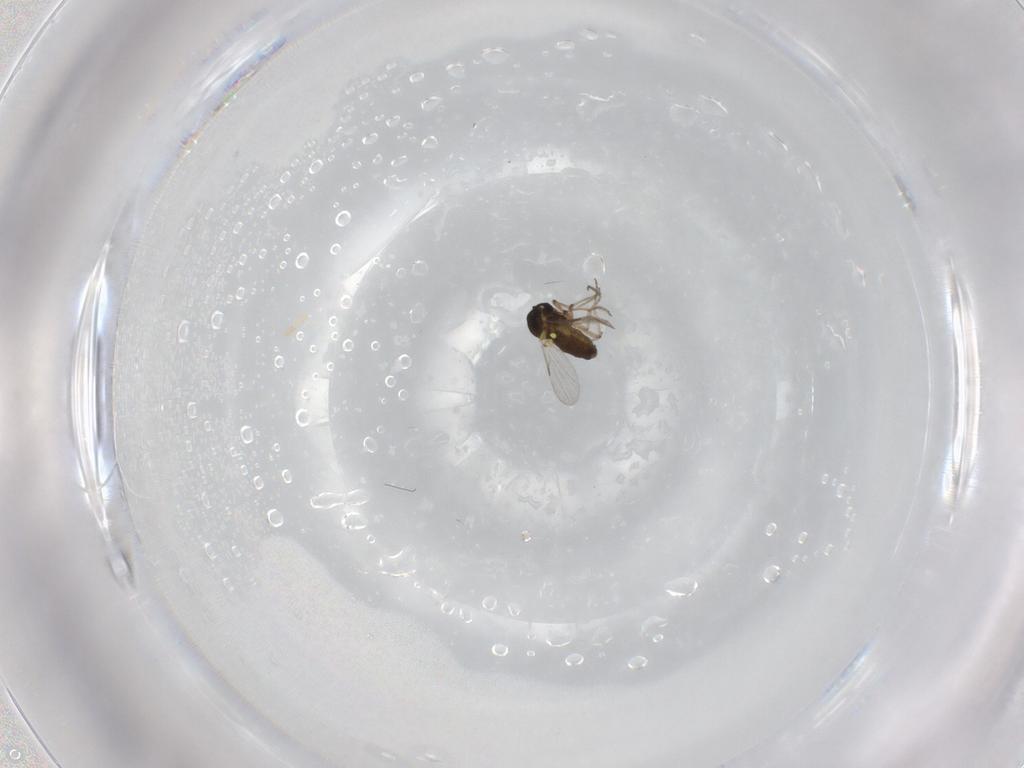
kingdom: Animalia
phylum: Arthropoda
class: Insecta
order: Diptera
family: Ceratopogonidae
